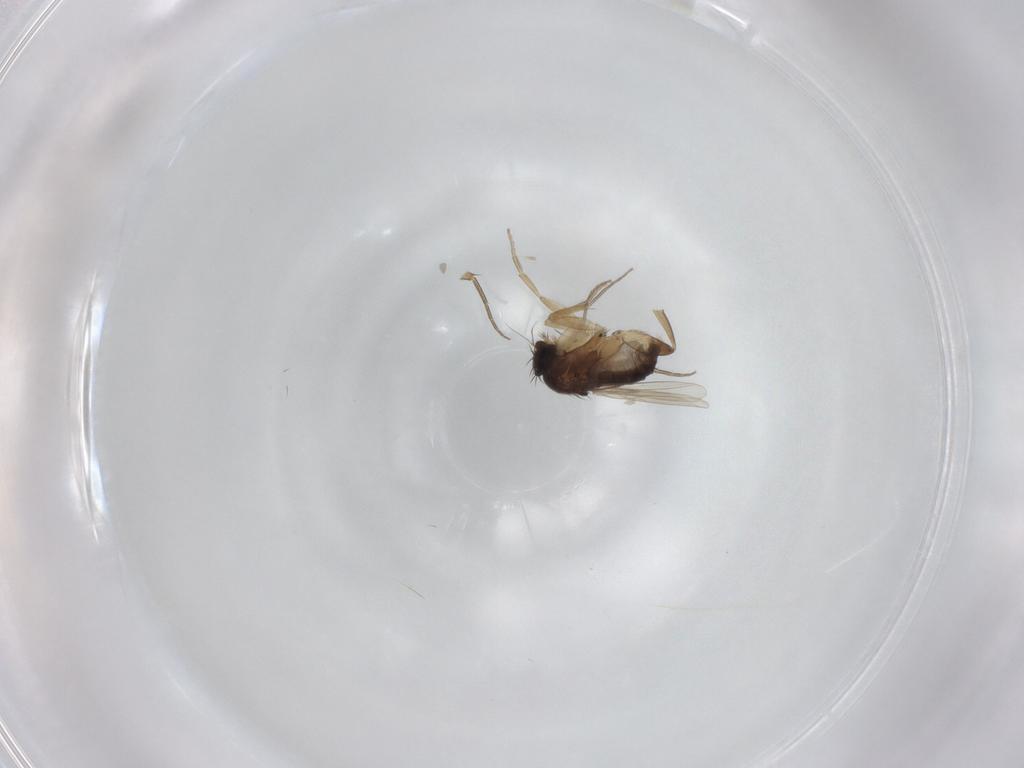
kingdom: Animalia
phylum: Arthropoda
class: Insecta
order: Diptera
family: Phoridae
